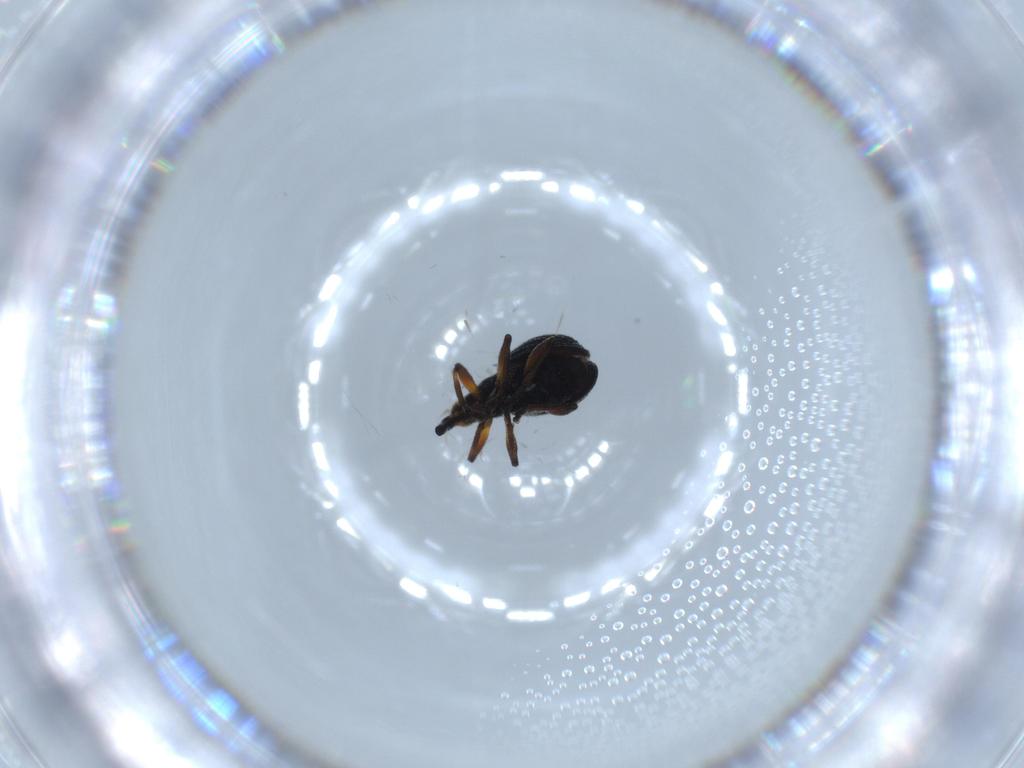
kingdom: Animalia
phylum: Arthropoda
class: Insecta
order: Coleoptera
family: Brentidae
